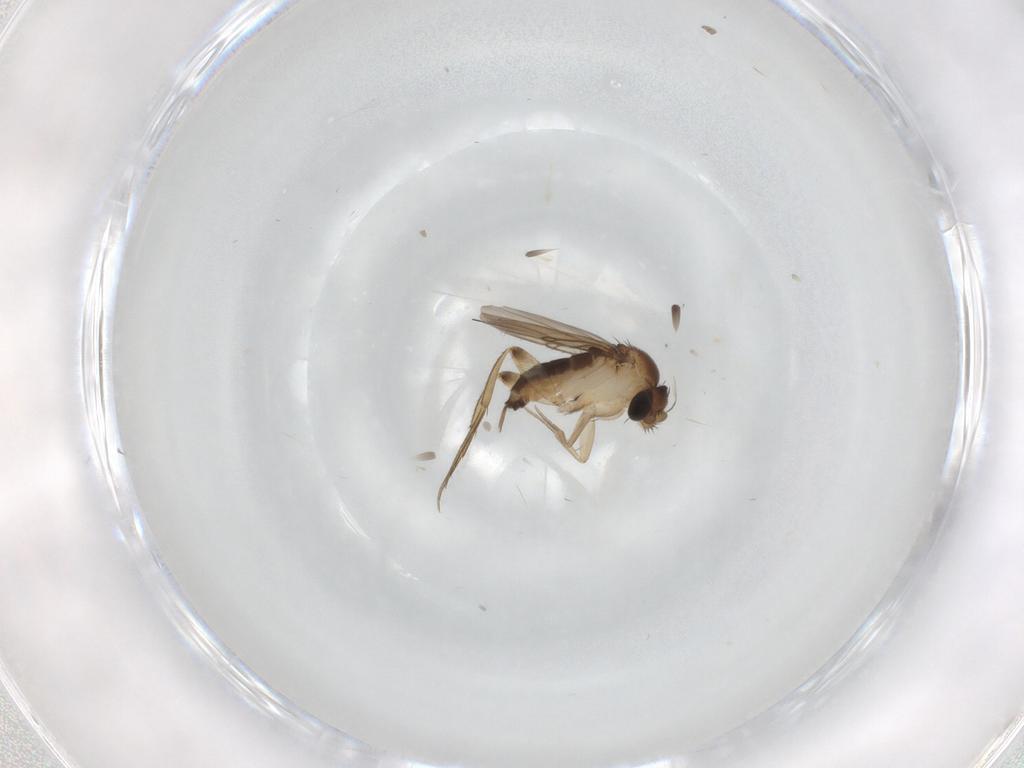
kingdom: Animalia
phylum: Arthropoda
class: Insecta
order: Diptera
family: Phoridae
